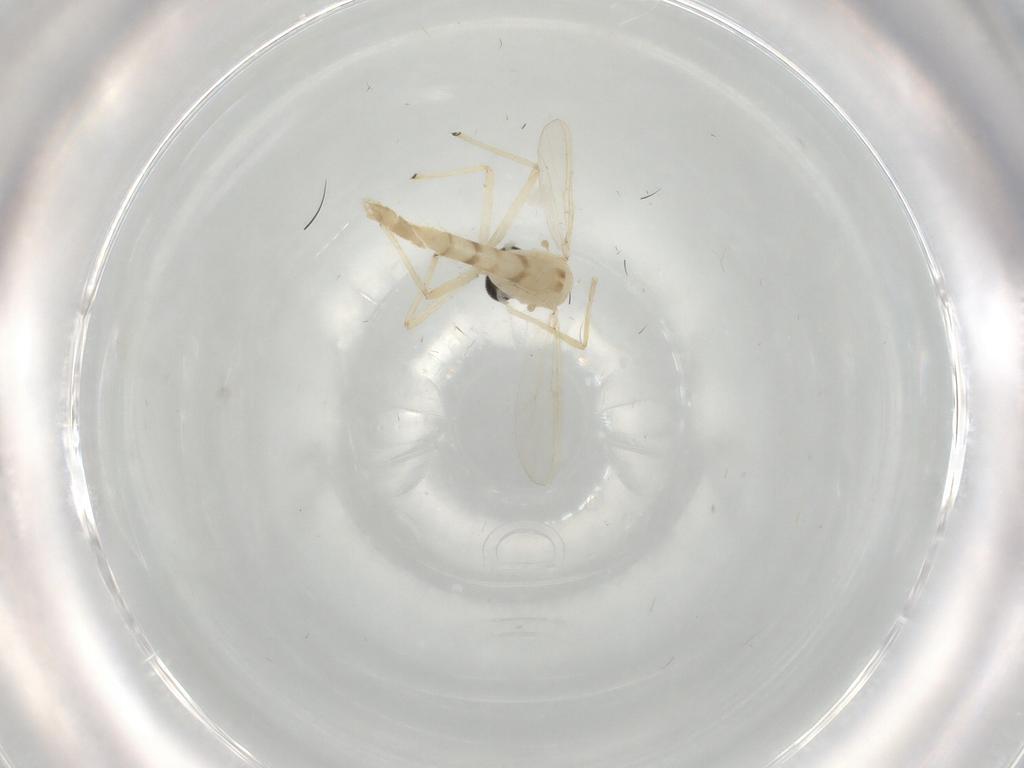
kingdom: Animalia
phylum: Arthropoda
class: Insecta
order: Diptera
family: Chironomidae
